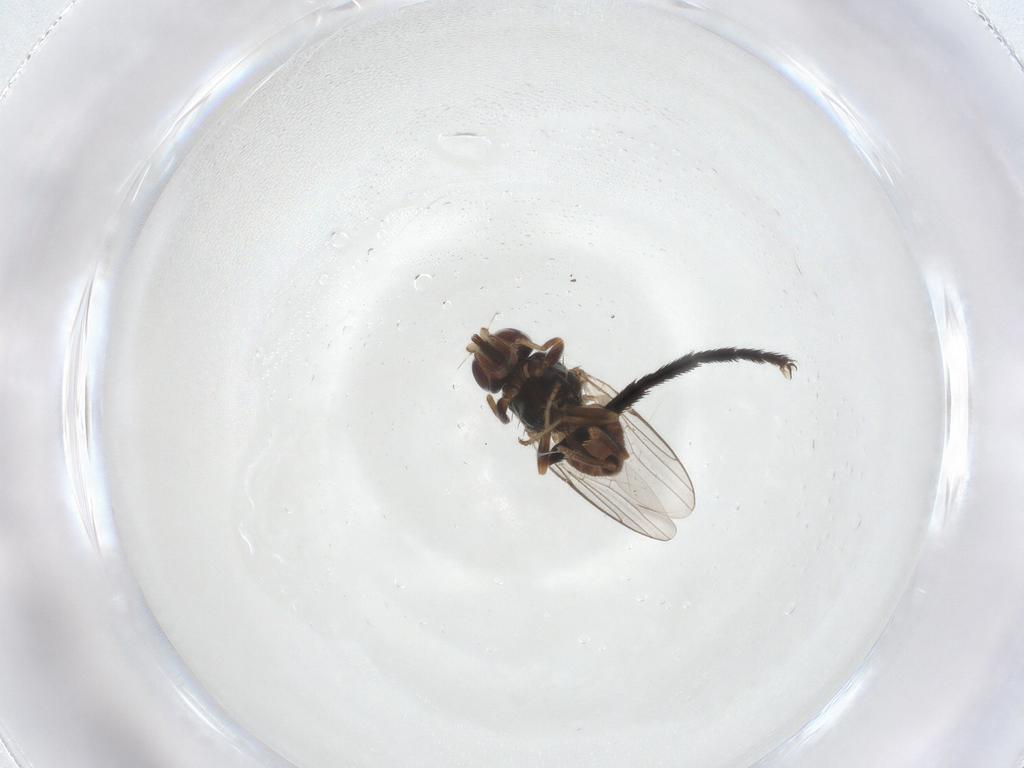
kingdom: Animalia
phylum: Arthropoda
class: Insecta
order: Diptera
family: Chloropidae
